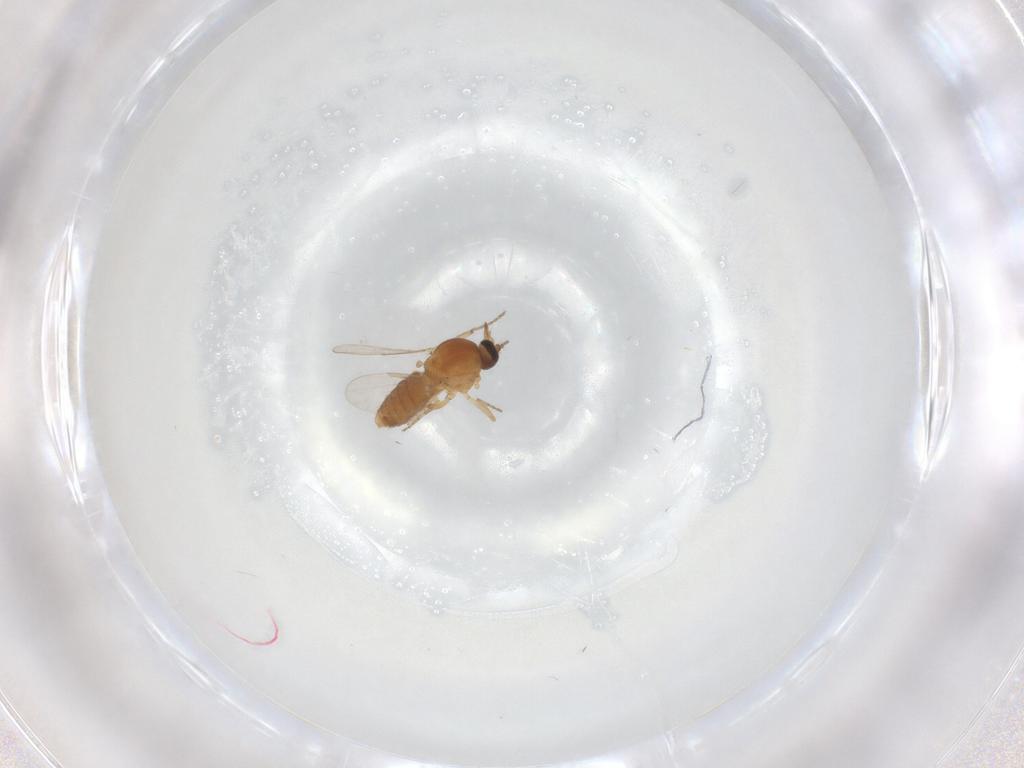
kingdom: Animalia
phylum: Arthropoda
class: Insecta
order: Diptera
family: Ceratopogonidae
